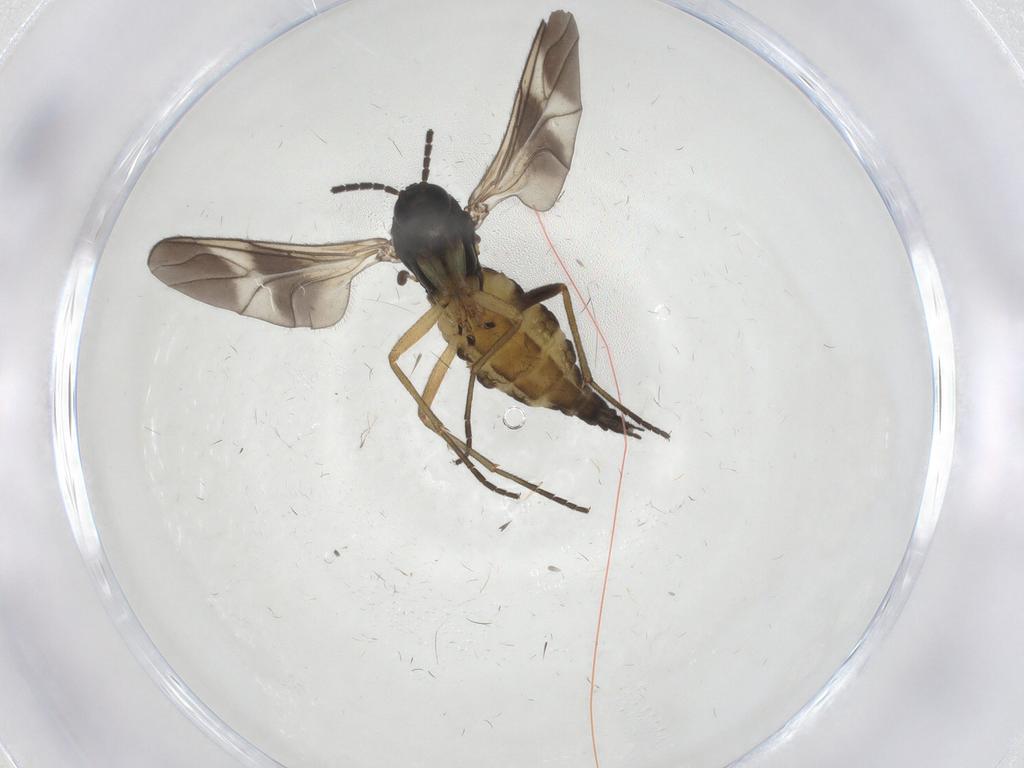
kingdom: Animalia
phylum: Arthropoda
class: Insecta
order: Diptera
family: Sciaridae
